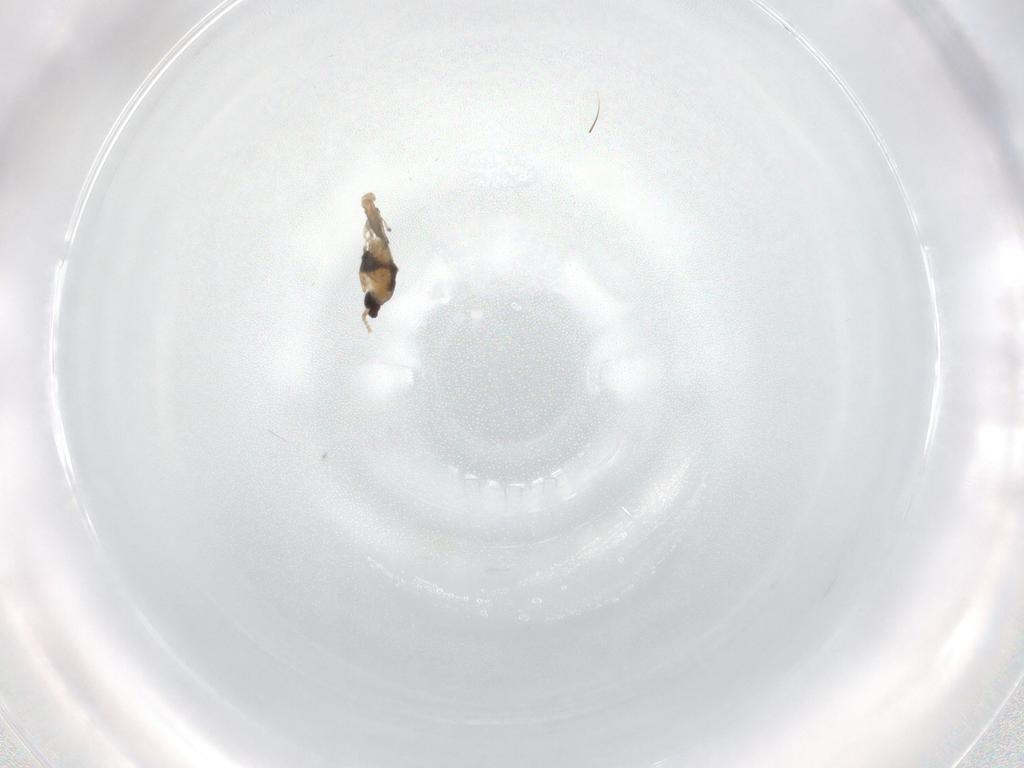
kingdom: Animalia
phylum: Arthropoda
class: Insecta
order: Diptera
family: Cecidomyiidae
